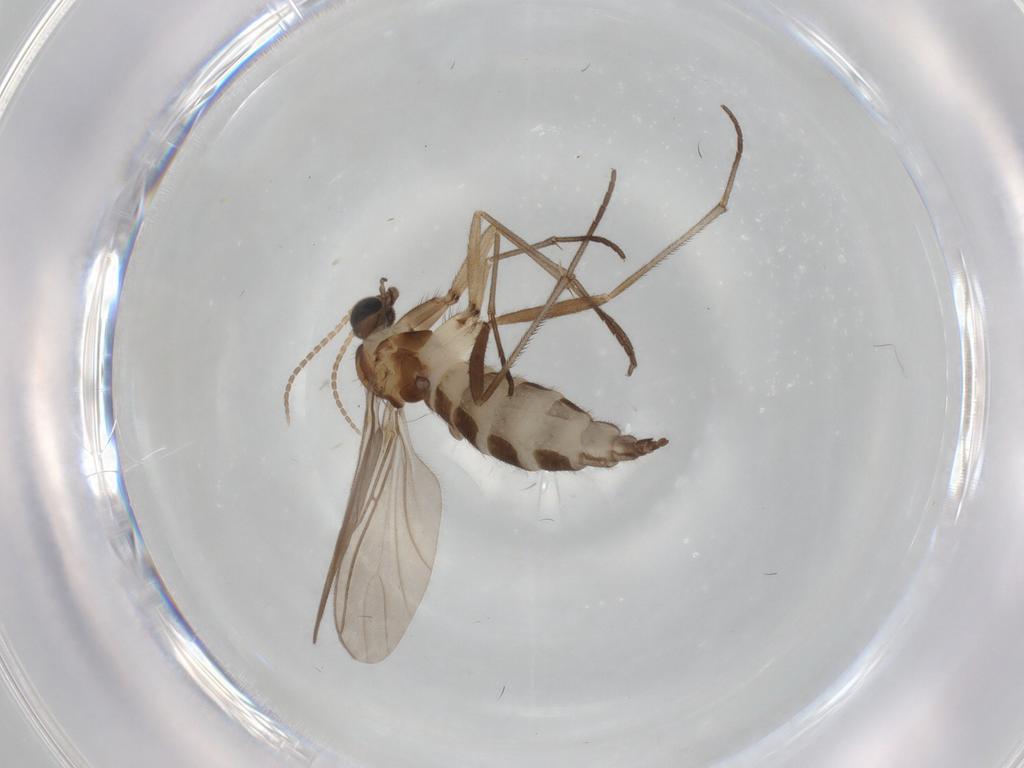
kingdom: Animalia
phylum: Arthropoda
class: Insecta
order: Diptera
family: Sciaridae
